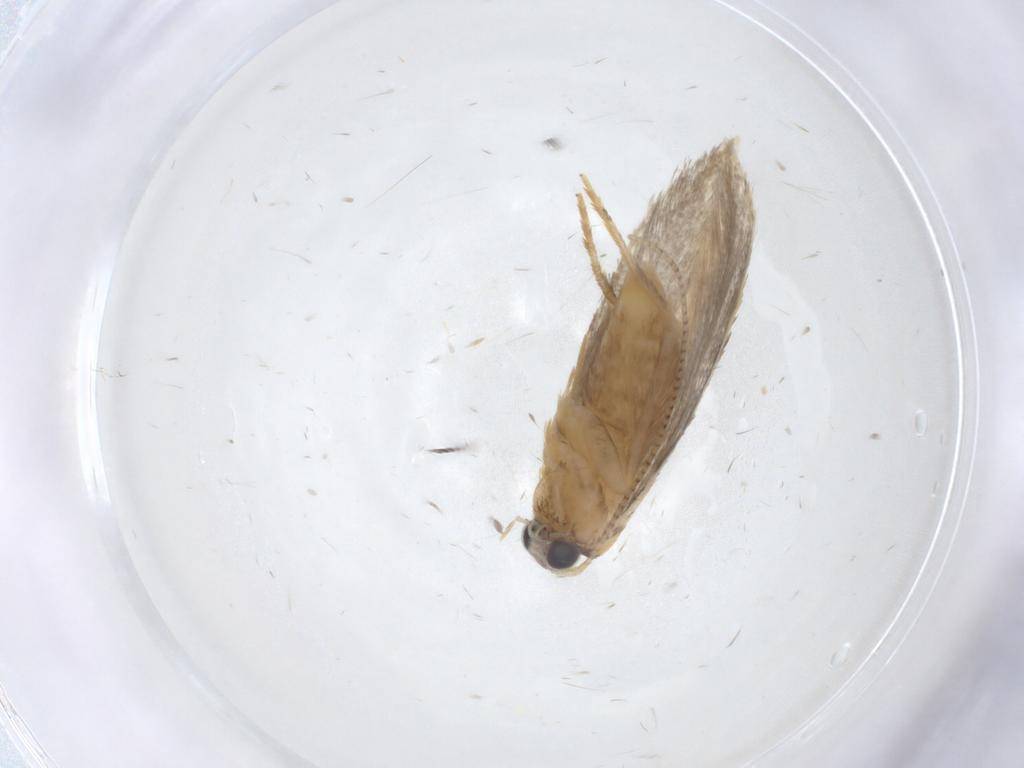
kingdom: Animalia
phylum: Arthropoda
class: Insecta
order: Lepidoptera
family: Tineidae
